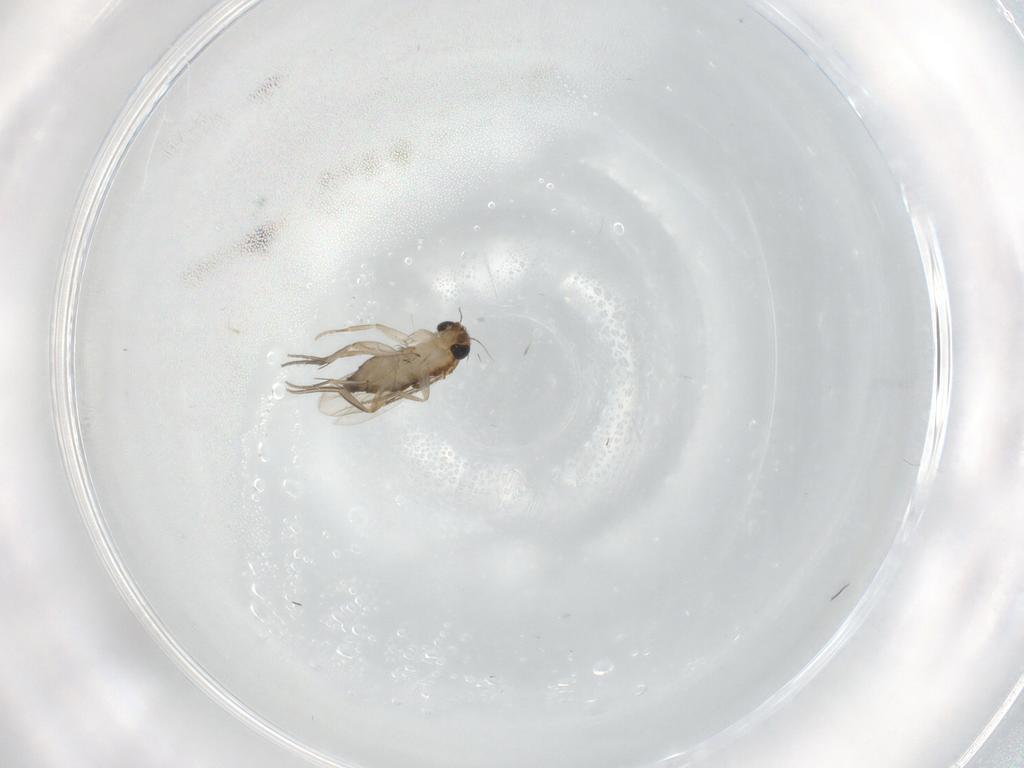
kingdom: Animalia
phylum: Arthropoda
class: Insecta
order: Diptera
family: Phoridae
